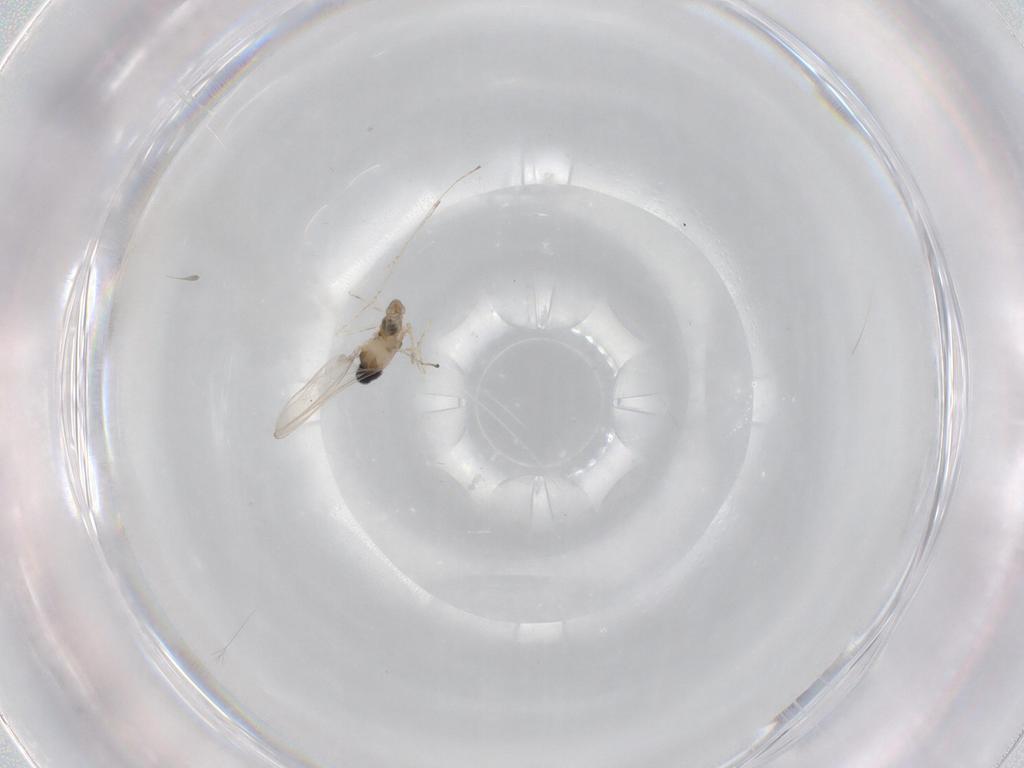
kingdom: Animalia
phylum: Arthropoda
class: Insecta
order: Diptera
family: Cecidomyiidae
